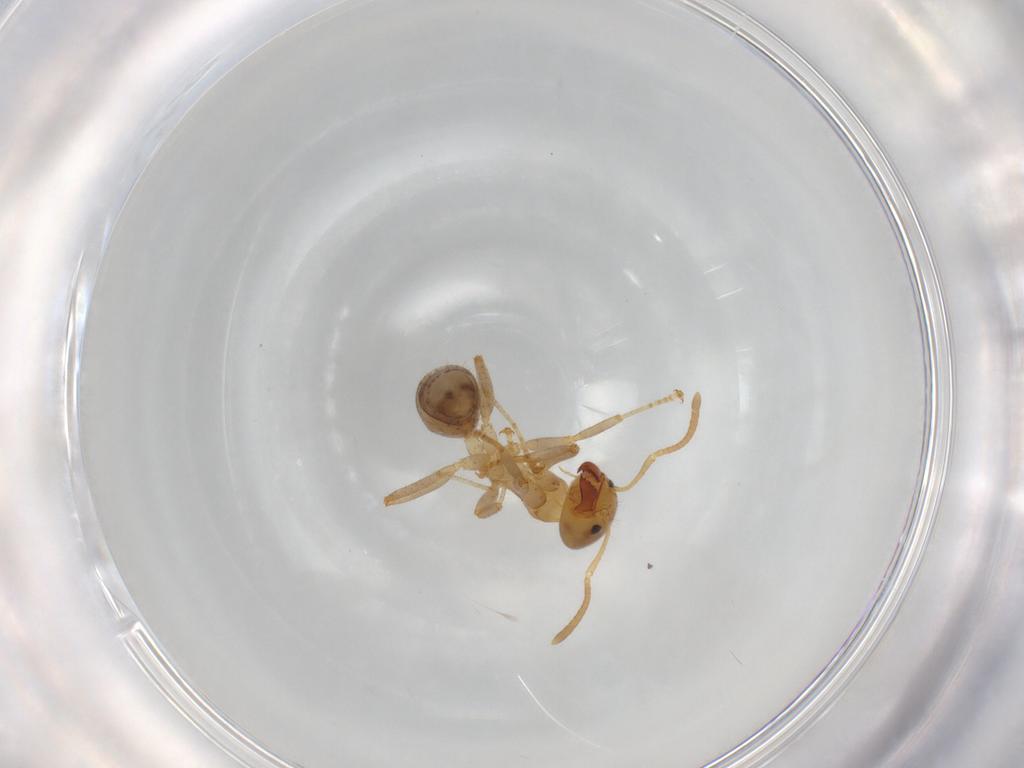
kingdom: Animalia
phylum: Arthropoda
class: Insecta
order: Hymenoptera
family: Formicidae
